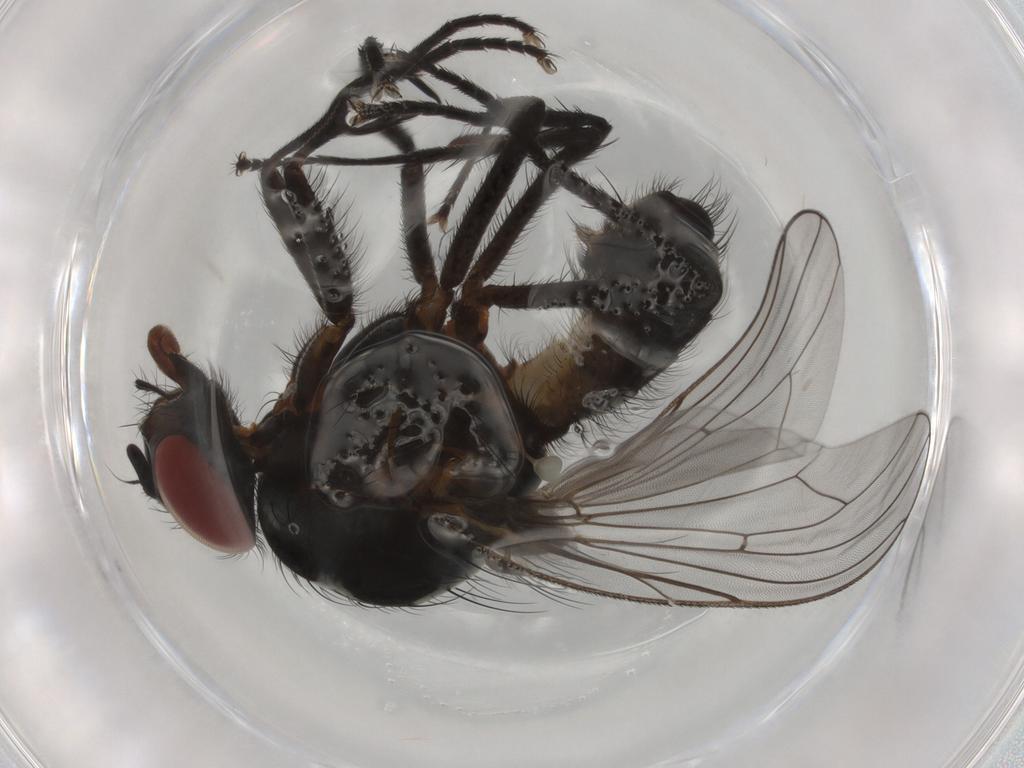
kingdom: Animalia
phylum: Arthropoda
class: Insecta
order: Diptera
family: Anthomyiidae
